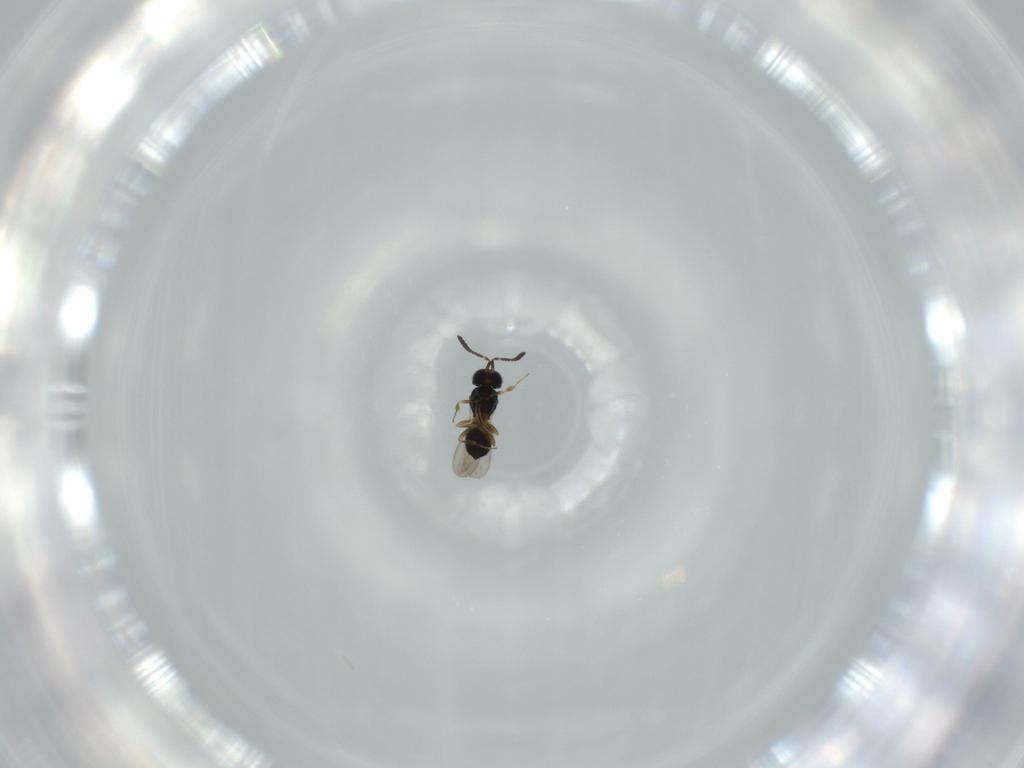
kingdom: Animalia
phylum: Arthropoda
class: Insecta
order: Hymenoptera
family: Scelionidae
